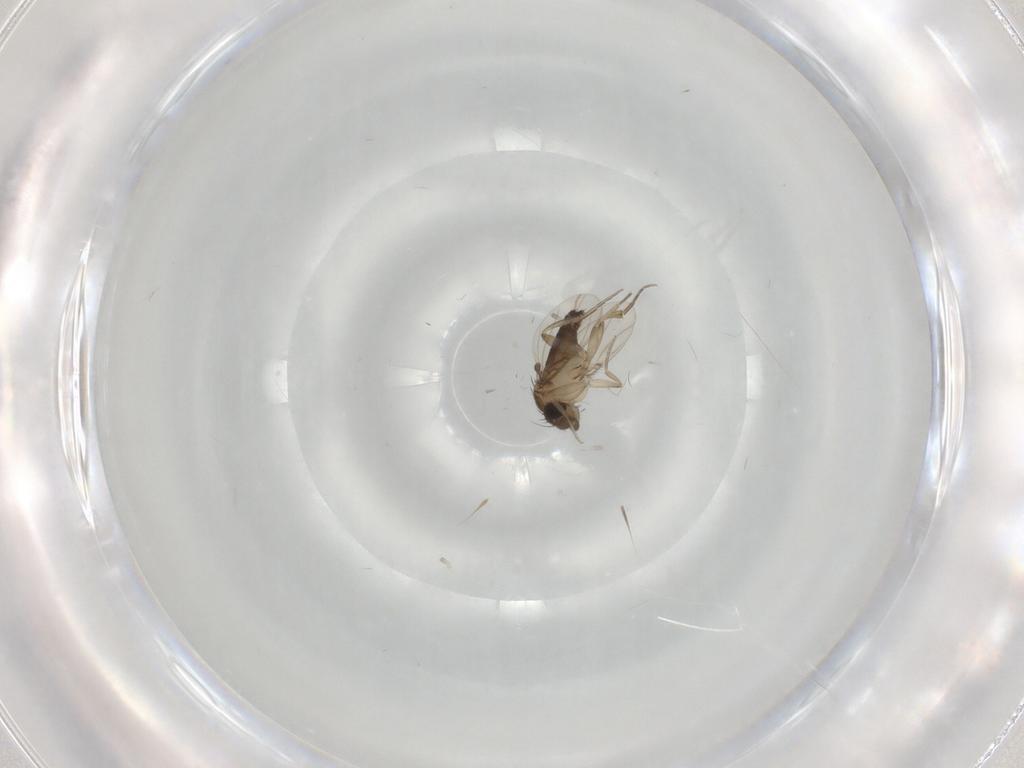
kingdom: Animalia
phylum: Arthropoda
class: Insecta
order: Diptera
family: Phoridae
